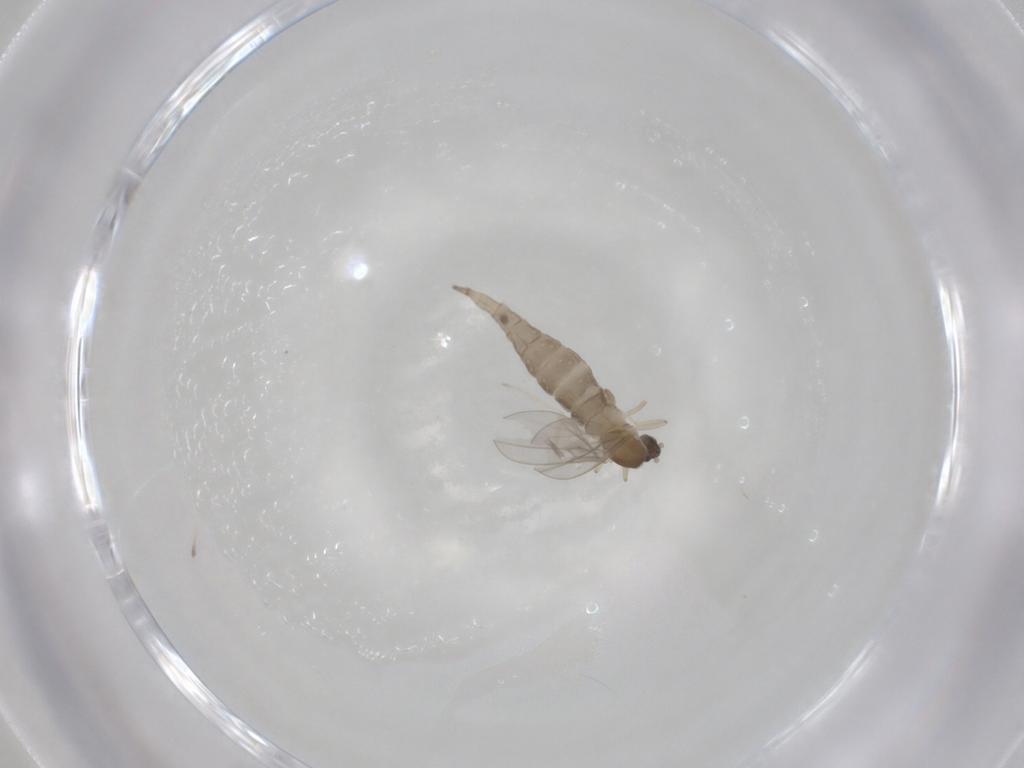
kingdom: Animalia
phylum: Arthropoda
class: Insecta
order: Diptera
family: Cecidomyiidae
